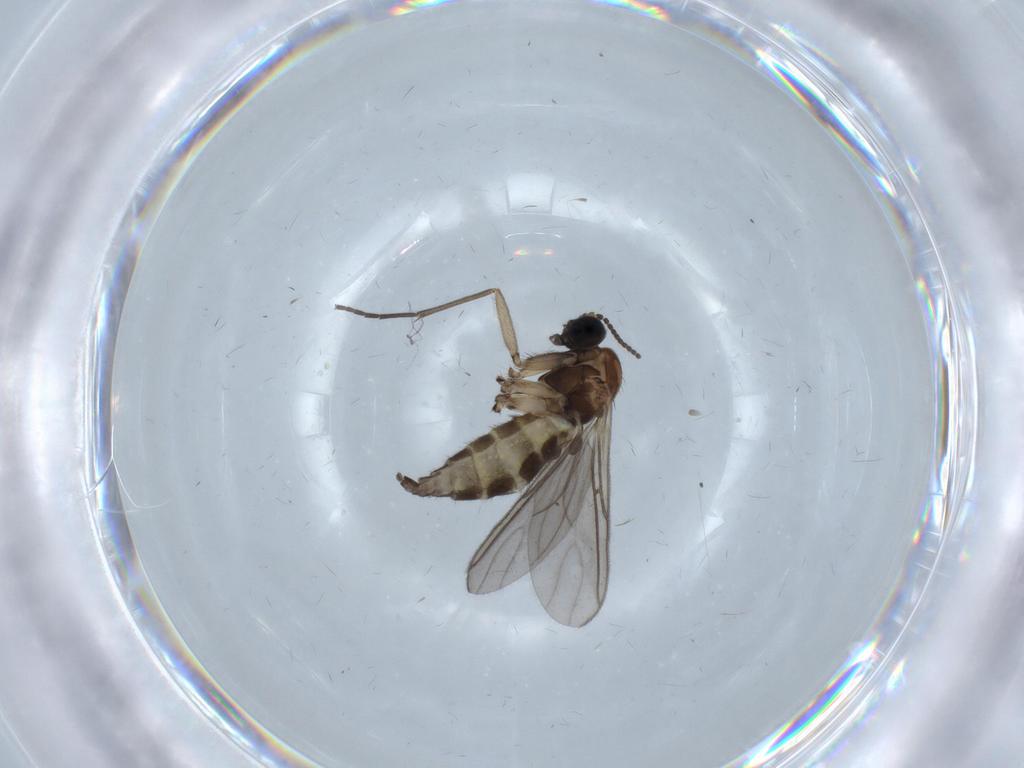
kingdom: Animalia
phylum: Arthropoda
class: Insecta
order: Diptera
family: Sciaridae
